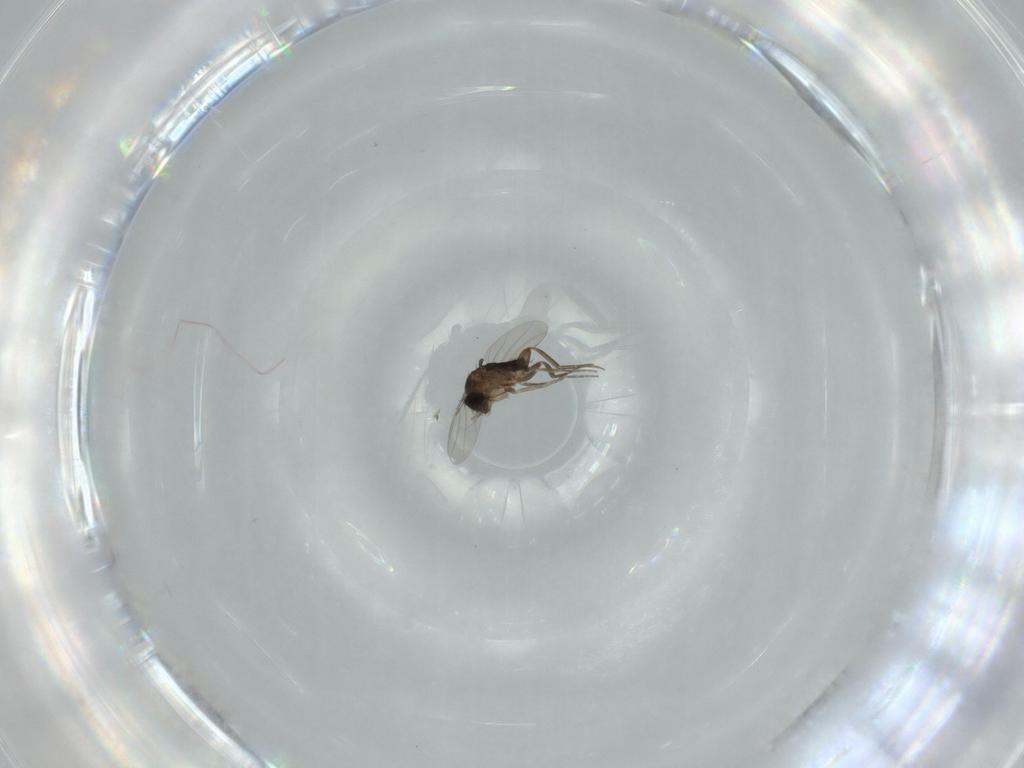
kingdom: Animalia
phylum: Arthropoda
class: Insecta
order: Diptera
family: Phoridae
